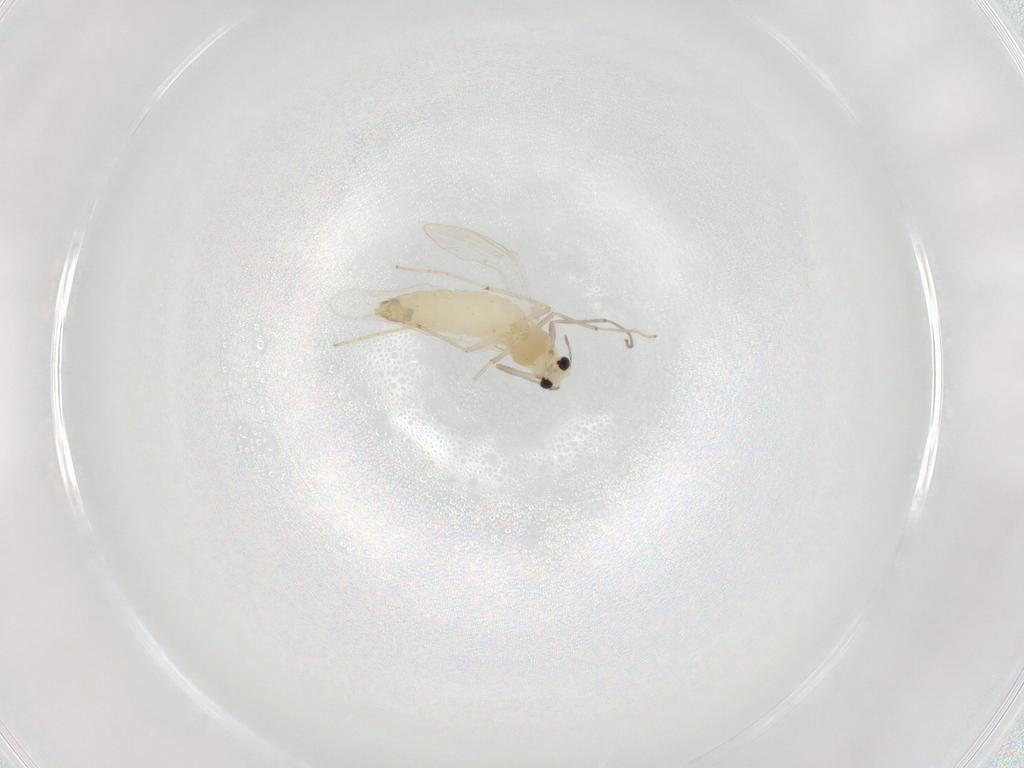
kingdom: Animalia
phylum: Arthropoda
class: Insecta
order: Diptera
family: Chironomidae
